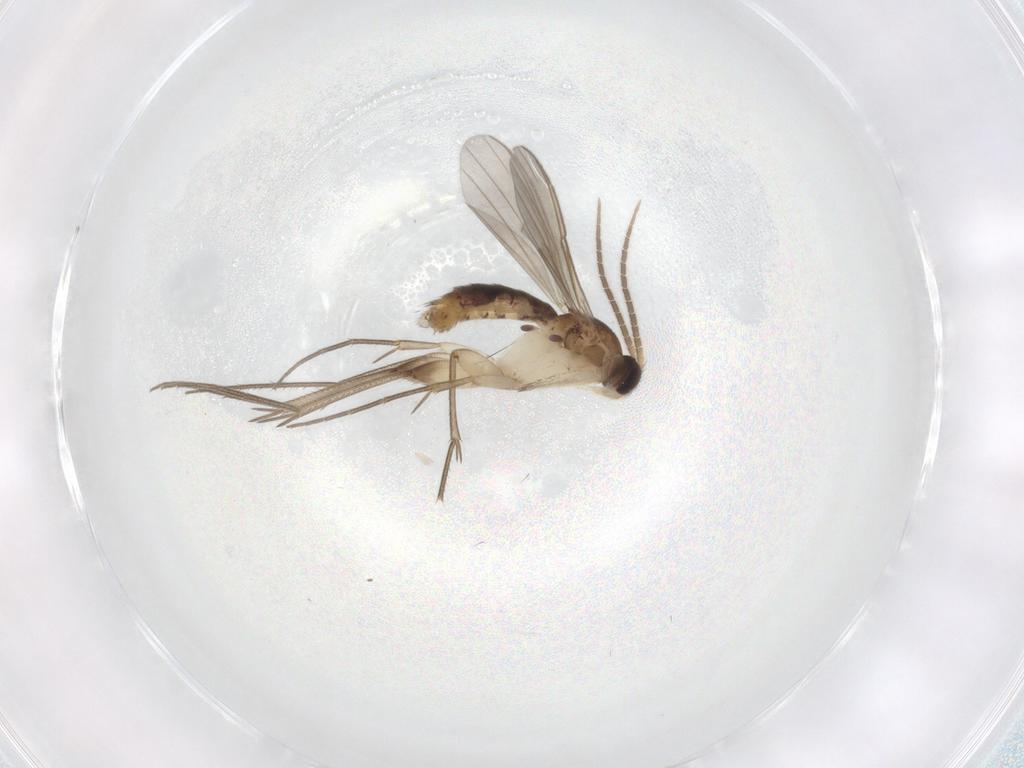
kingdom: Animalia
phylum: Arthropoda
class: Insecta
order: Diptera
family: Mycetophilidae
